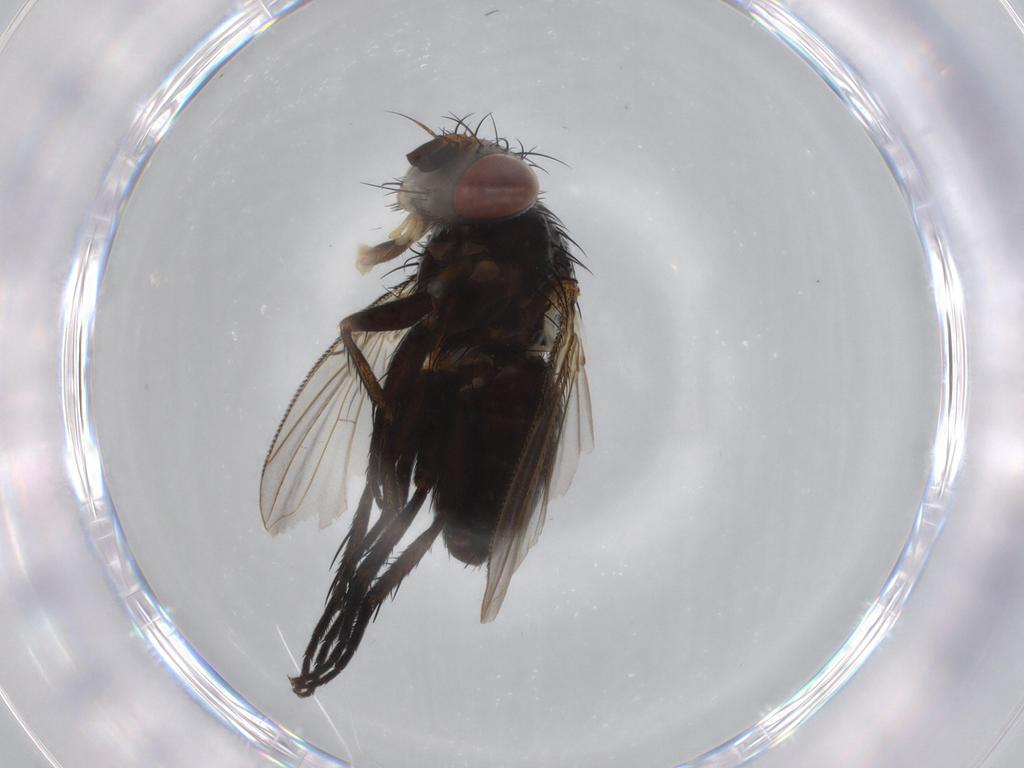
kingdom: Animalia
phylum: Arthropoda
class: Insecta
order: Diptera
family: Tachinidae
